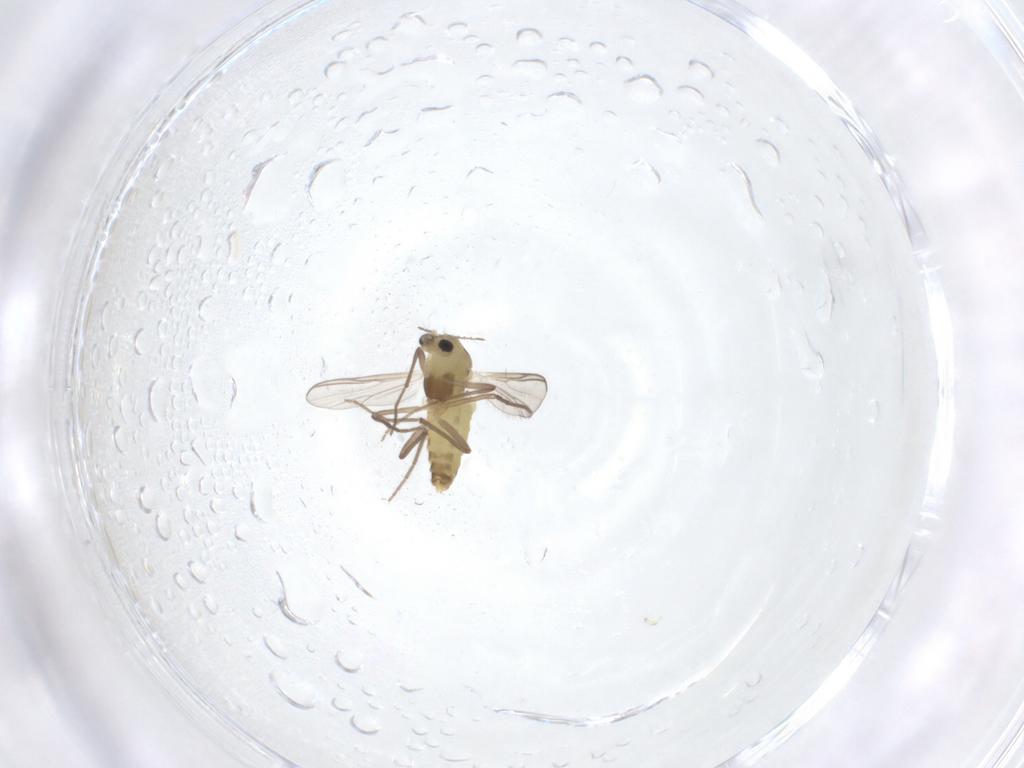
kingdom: Animalia
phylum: Arthropoda
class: Insecta
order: Diptera
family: Chironomidae
